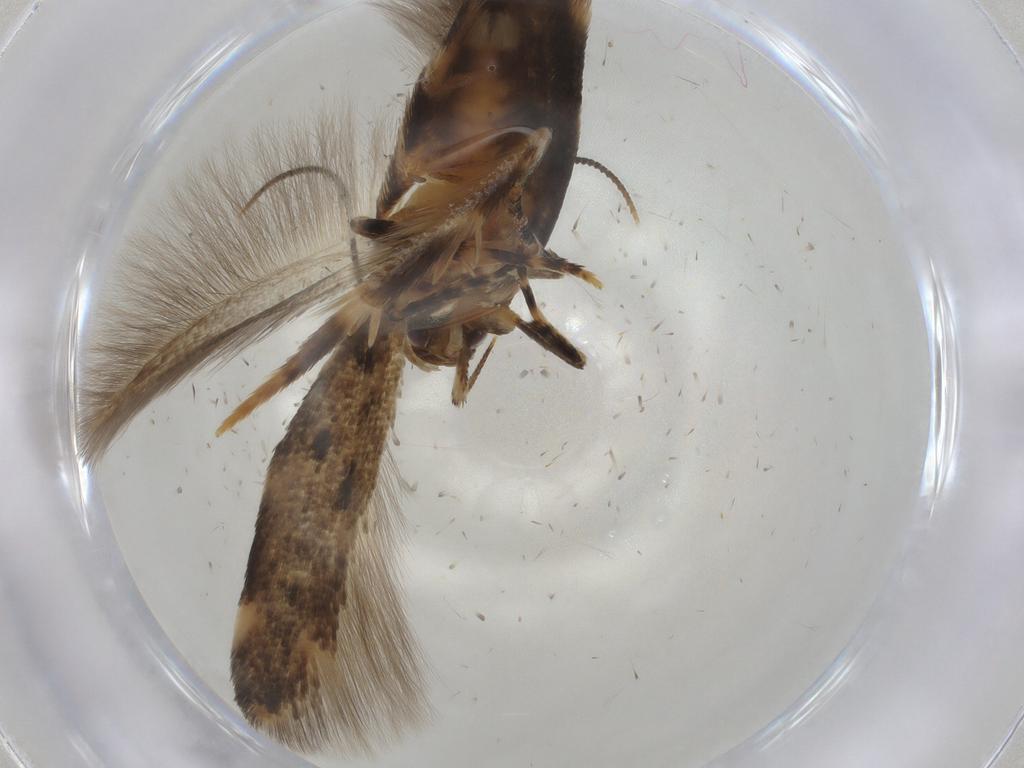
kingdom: Animalia
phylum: Arthropoda
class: Insecta
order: Lepidoptera
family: Cosmopterigidae
